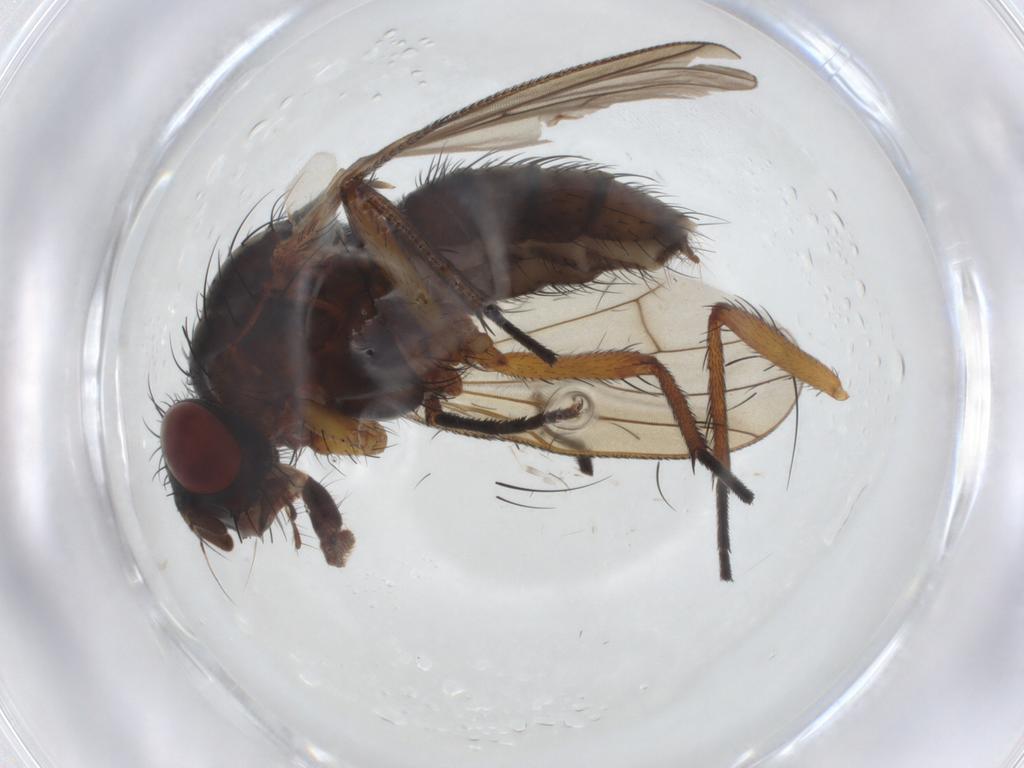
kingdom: Animalia
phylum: Arthropoda
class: Insecta
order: Diptera
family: Anthomyiidae
